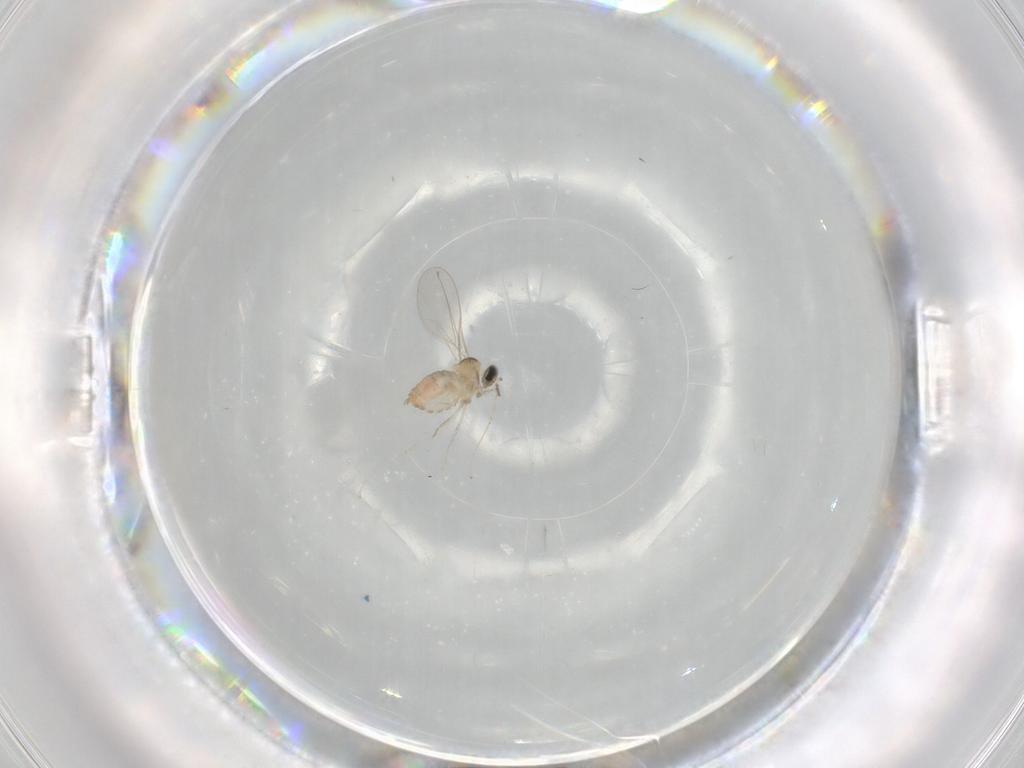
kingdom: Animalia
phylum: Arthropoda
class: Insecta
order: Diptera
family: Cecidomyiidae
